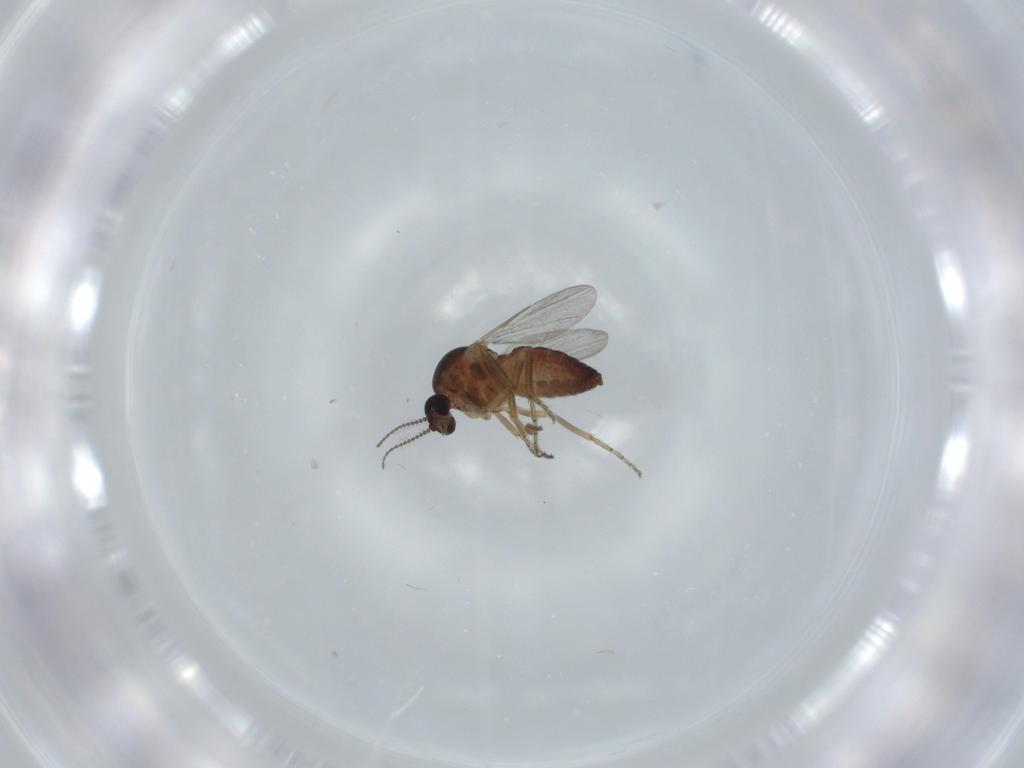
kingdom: Animalia
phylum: Arthropoda
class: Insecta
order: Diptera
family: Ceratopogonidae
